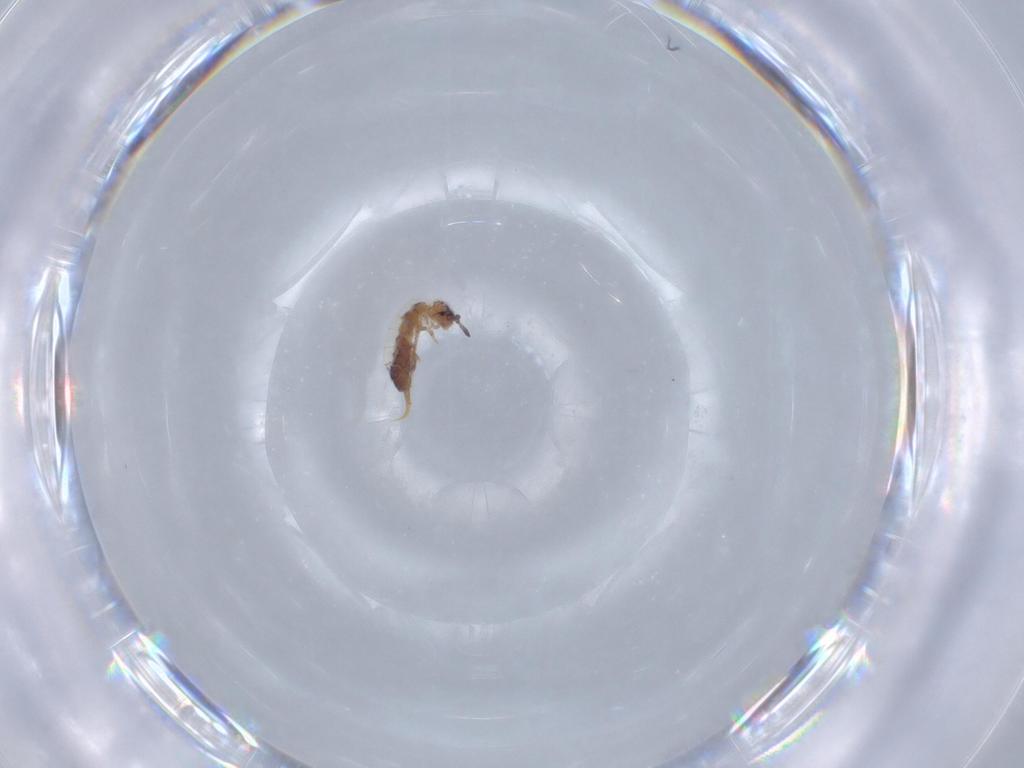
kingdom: Animalia
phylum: Arthropoda
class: Collembola
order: Entomobryomorpha
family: Isotomidae
